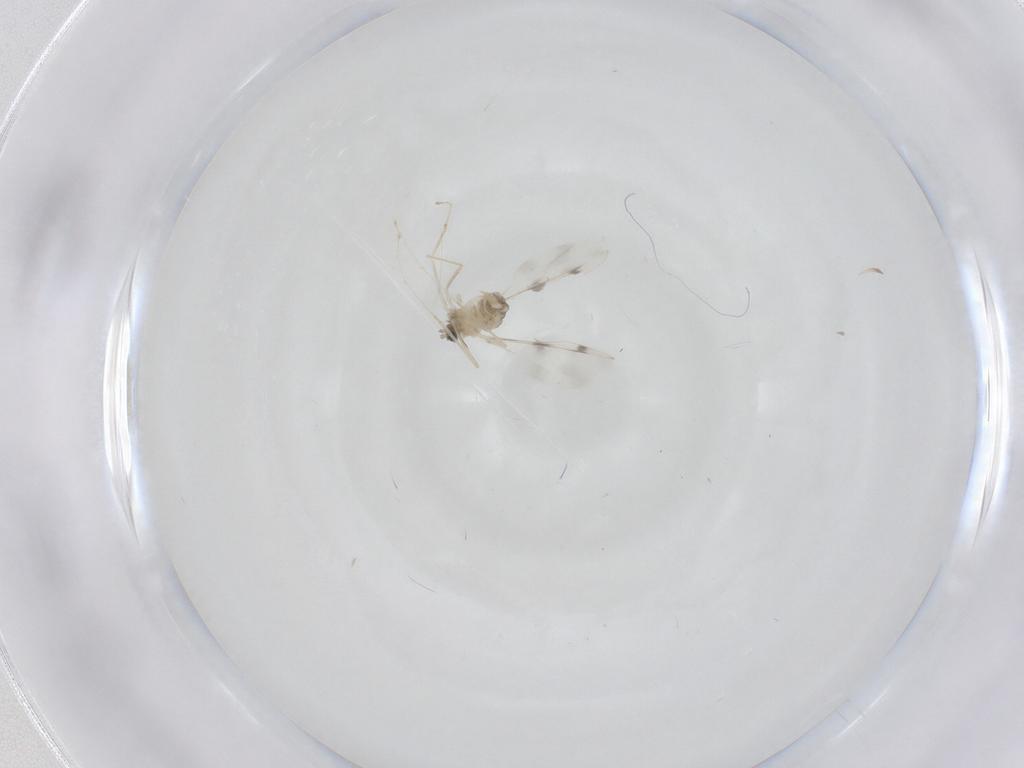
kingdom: Animalia
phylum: Arthropoda
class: Insecta
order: Diptera
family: Cecidomyiidae
